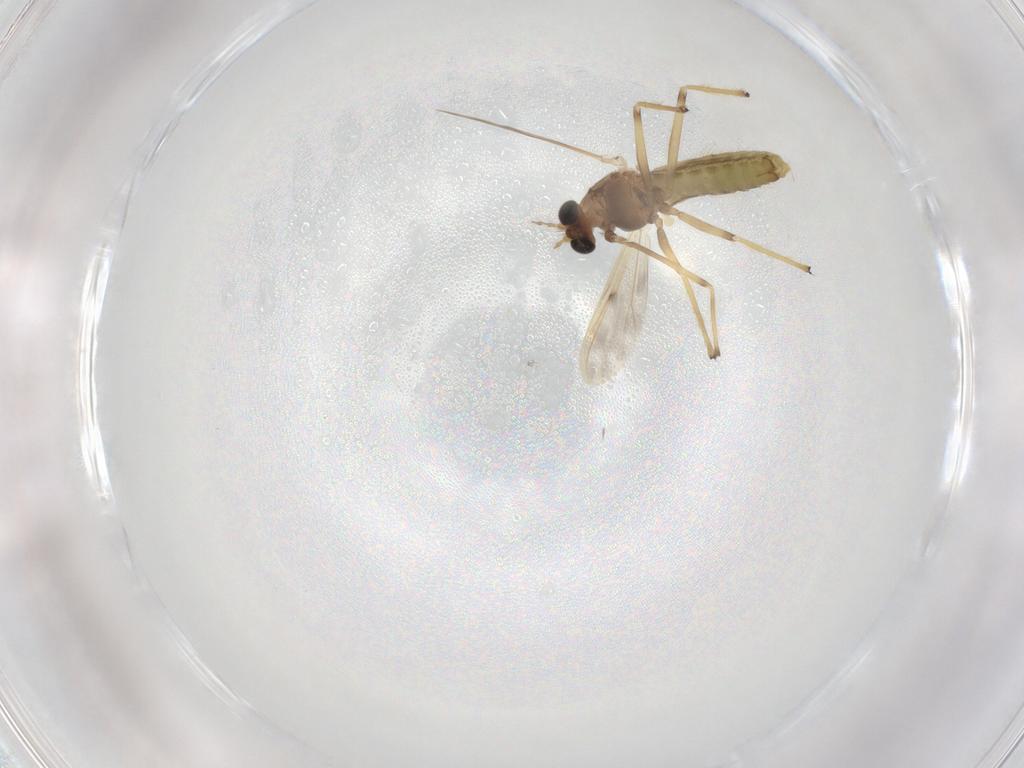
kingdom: Animalia
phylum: Arthropoda
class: Insecta
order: Diptera
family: Chironomidae
